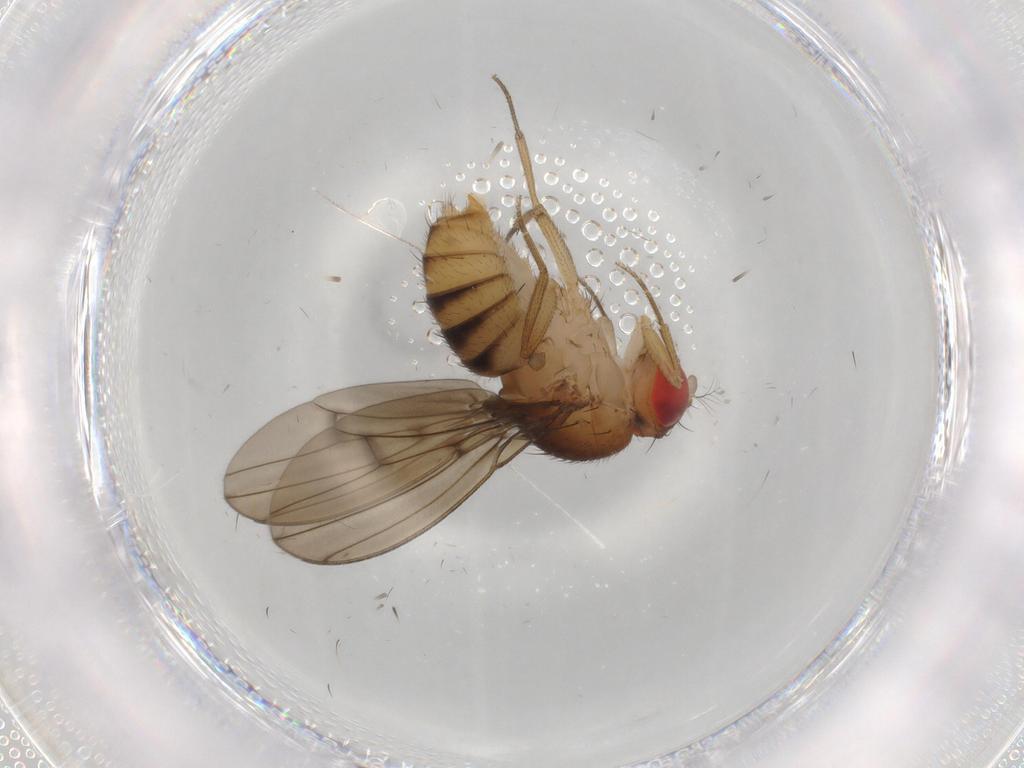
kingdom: Animalia
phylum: Arthropoda
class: Insecta
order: Diptera
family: Drosophilidae
